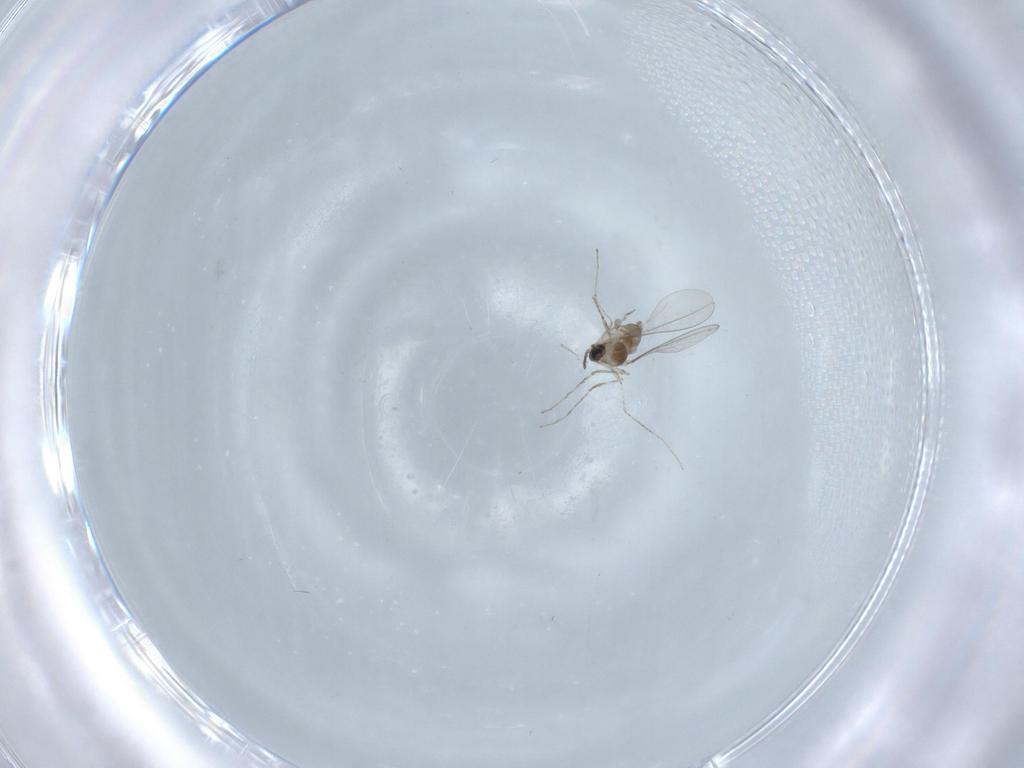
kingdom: Animalia
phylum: Arthropoda
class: Insecta
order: Diptera
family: Cecidomyiidae
